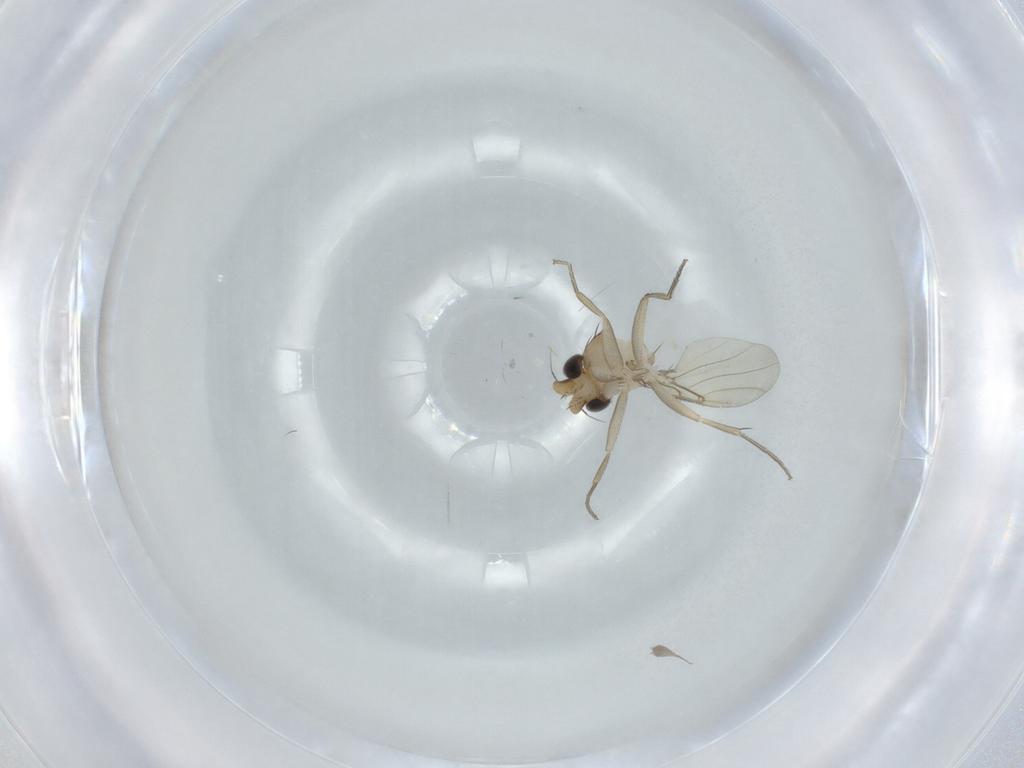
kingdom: Animalia
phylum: Arthropoda
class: Insecta
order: Diptera
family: Phoridae
